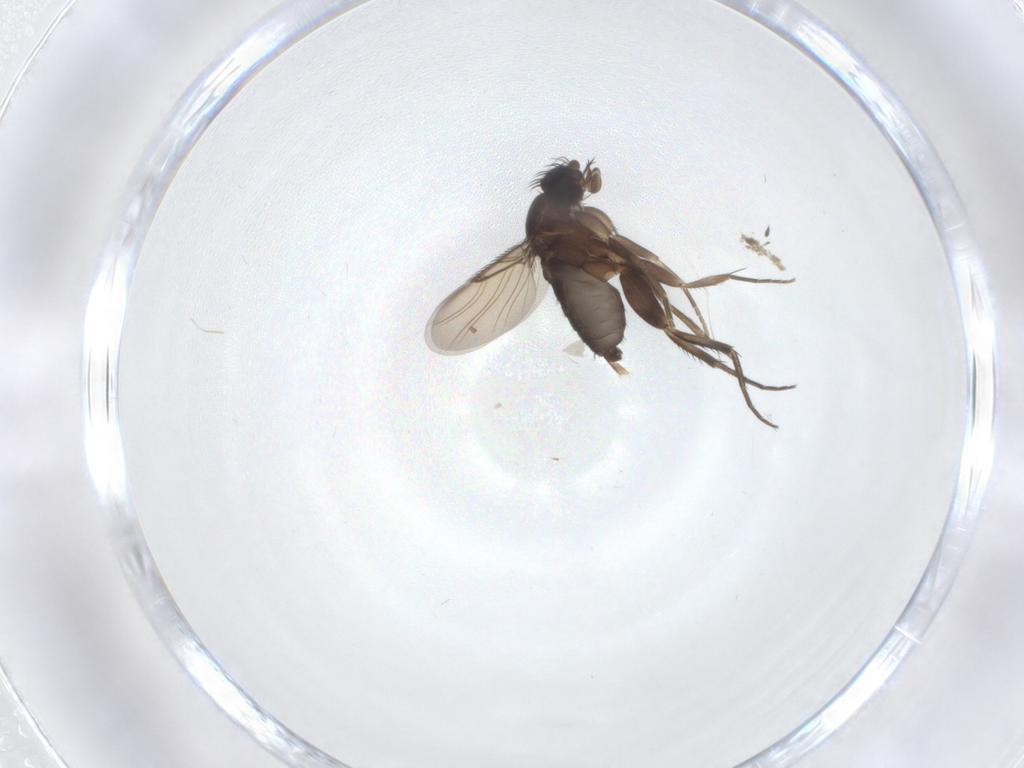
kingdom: Animalia
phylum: Arthropoda
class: Insecta
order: Diptera
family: Phoridae
